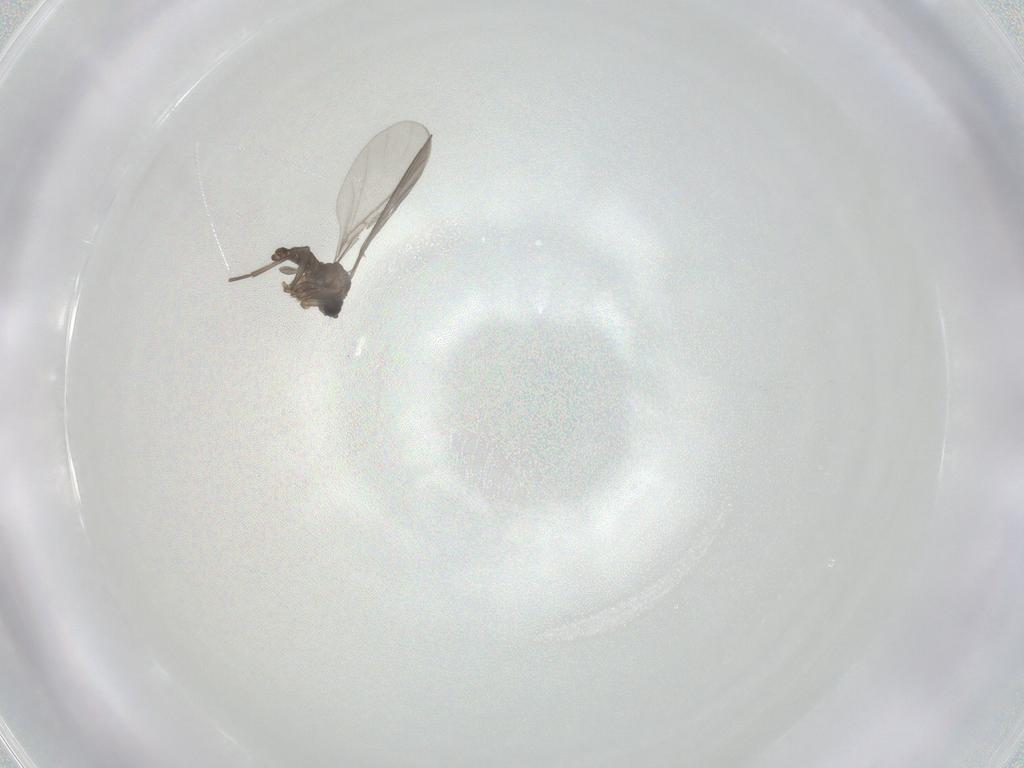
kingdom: Animalia
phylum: Arthropoda
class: Insecta
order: Diptera
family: Sciaridae
